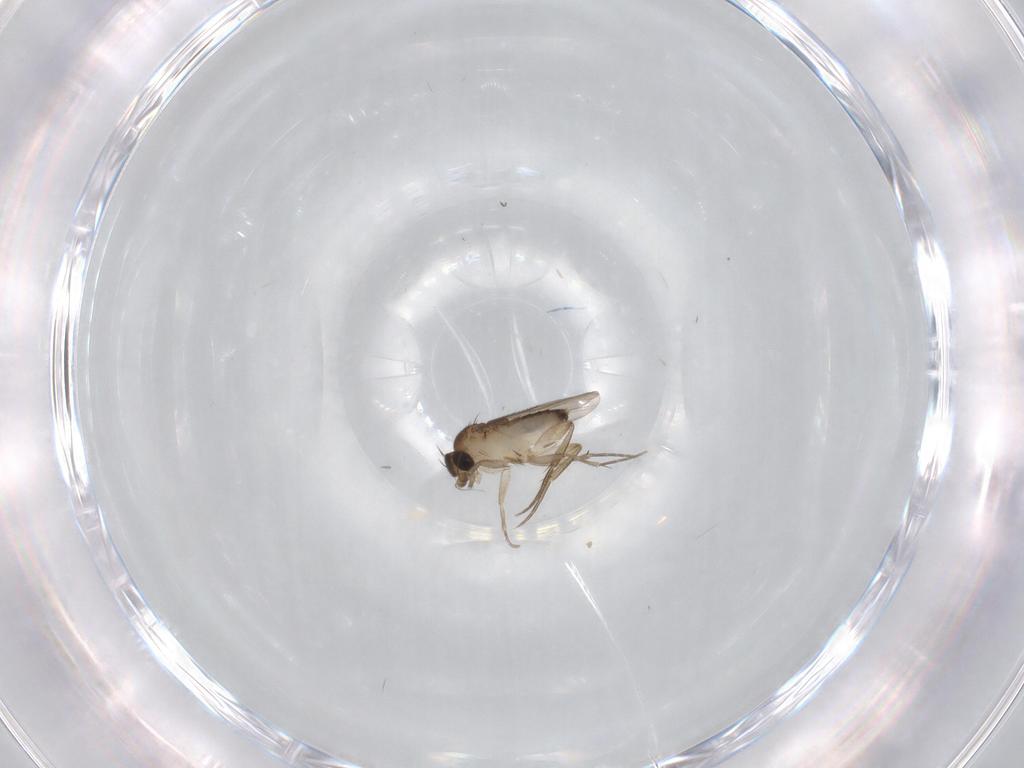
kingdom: Animalia
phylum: Arthropoda
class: Insecta
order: Diptera
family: Phoridae
